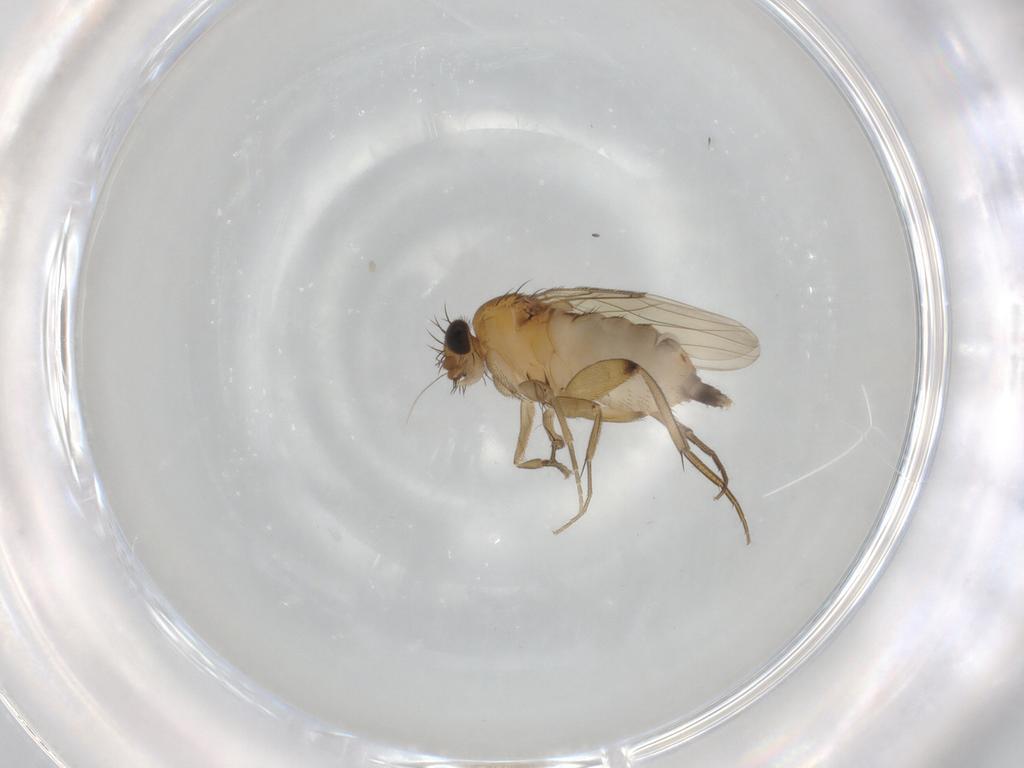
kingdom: Animalia
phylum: Arthropoda
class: Insecta
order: Diptera
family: Phoridae
